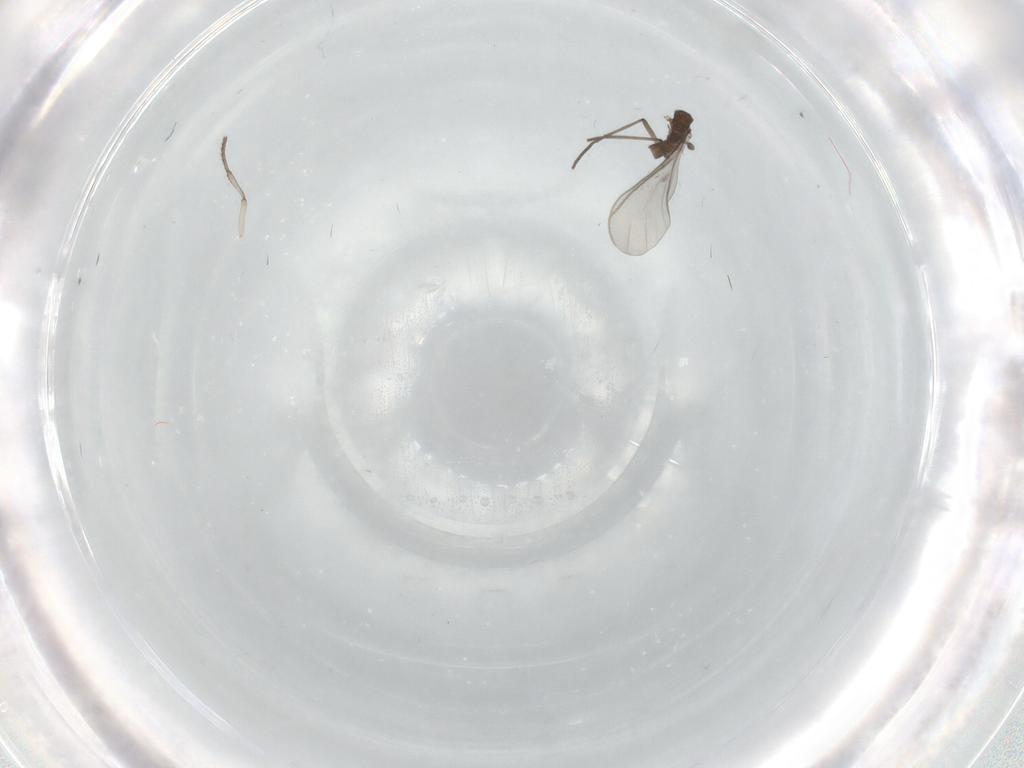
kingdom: Animalia
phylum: Arthropoda
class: Insecta
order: Diptera
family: Sciaridae
